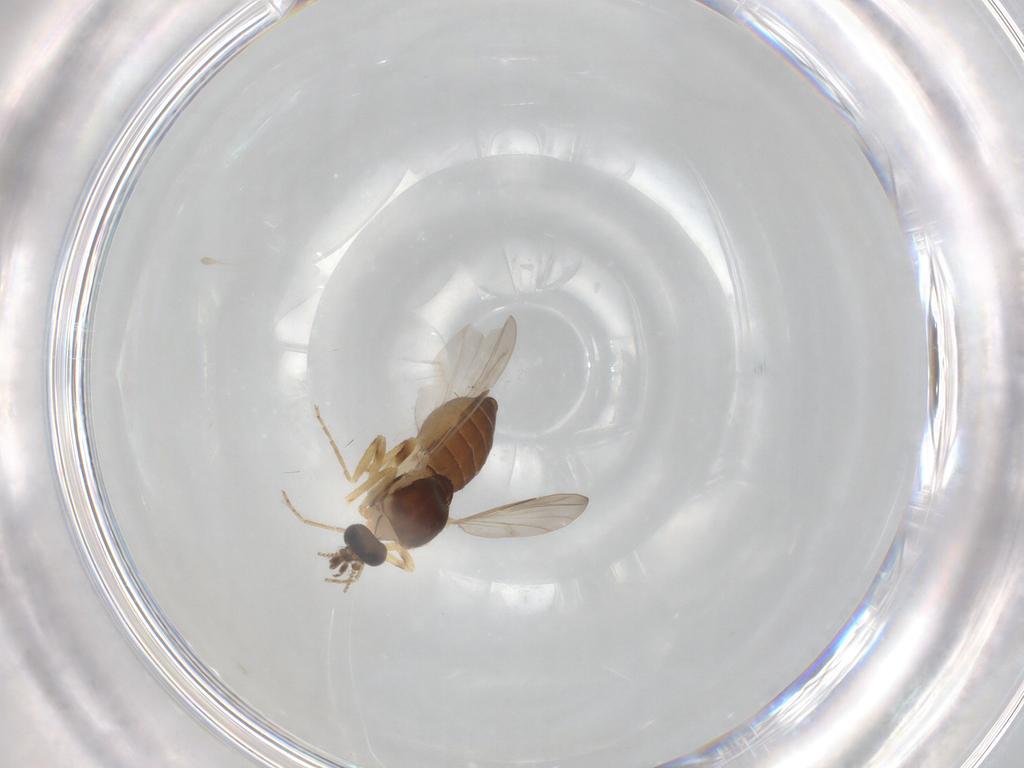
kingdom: Animalia
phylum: Arthropoda
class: Insecta
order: Diptera
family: Ceratopogonidae
